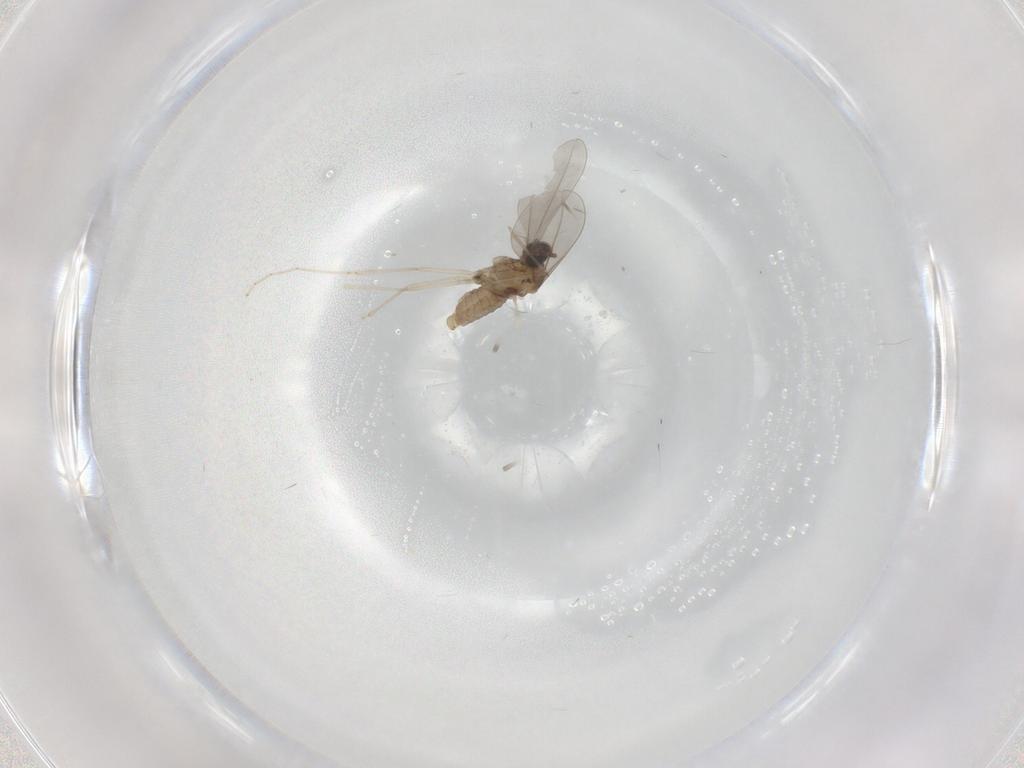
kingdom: Animalia
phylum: Arthropoda
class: Insecta
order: Diptera
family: Cecidomyiidae
